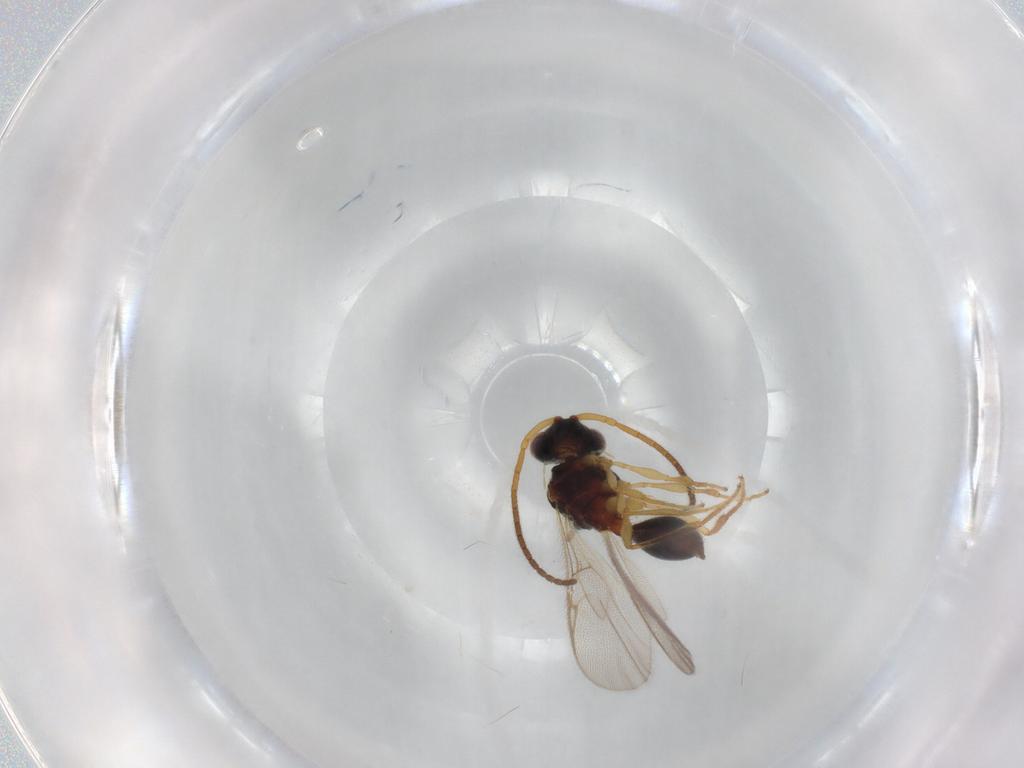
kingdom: Animalia
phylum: Arthropoda
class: Insecta
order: Hymenoptera
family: Diapriidae
